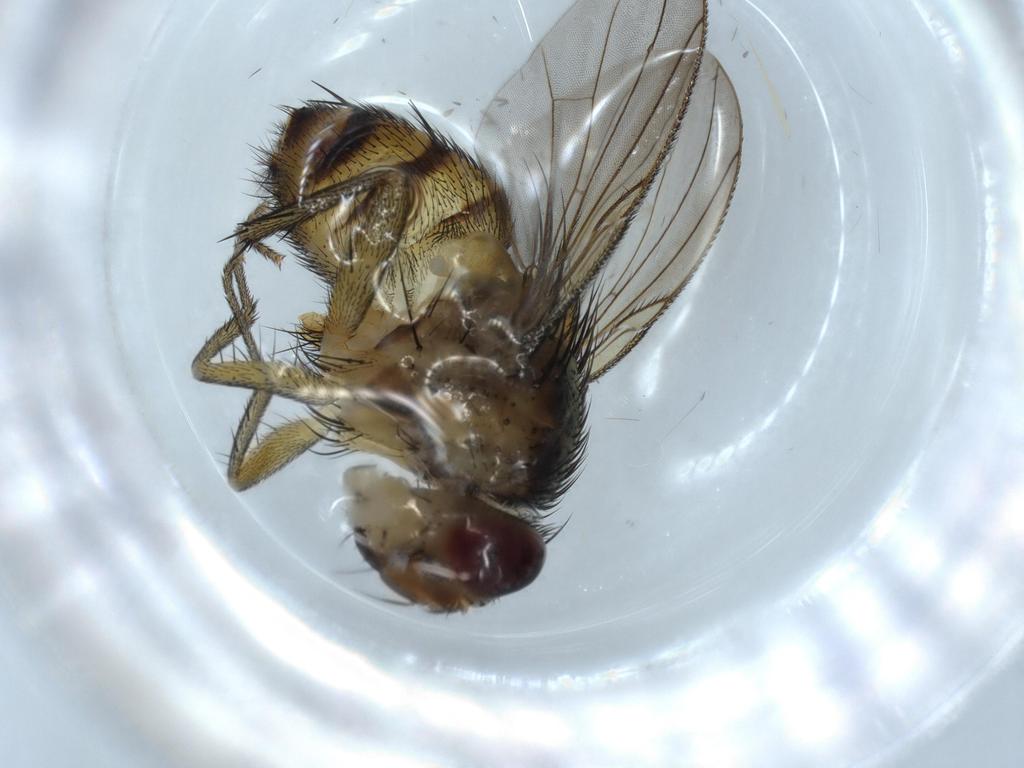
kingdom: Animalia
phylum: Arthropoda
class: Insecta
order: Diptera
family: Sciaridae
